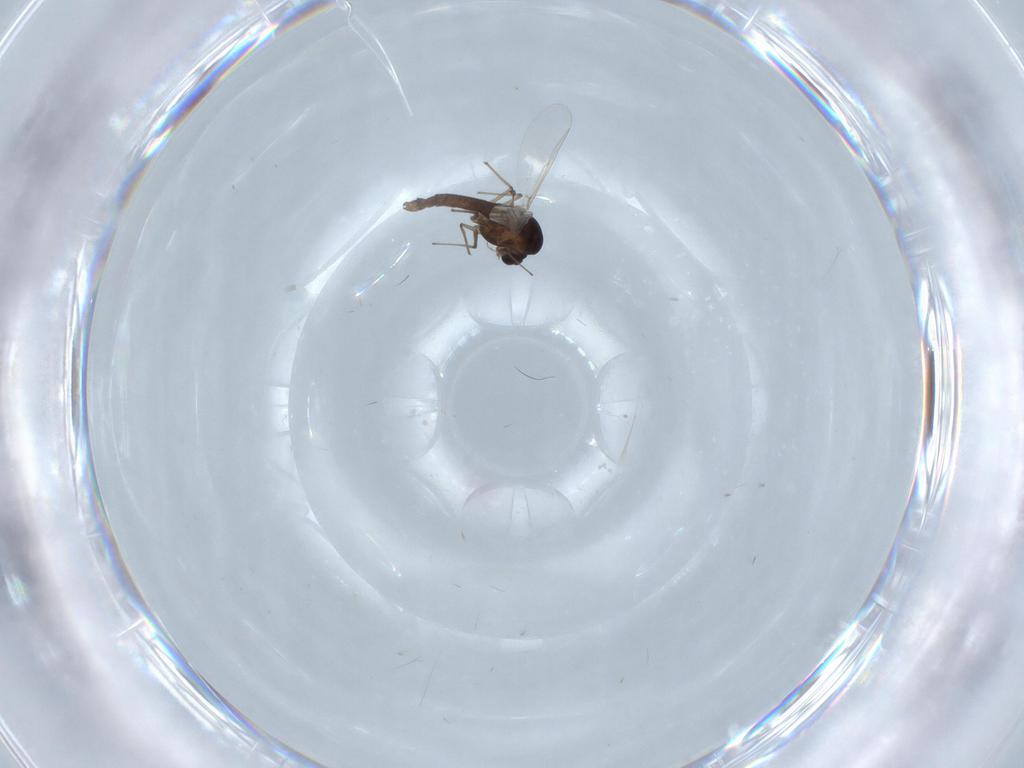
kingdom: Animalia
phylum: Arthropoda
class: Insecta
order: Diptera
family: Chironomidae
